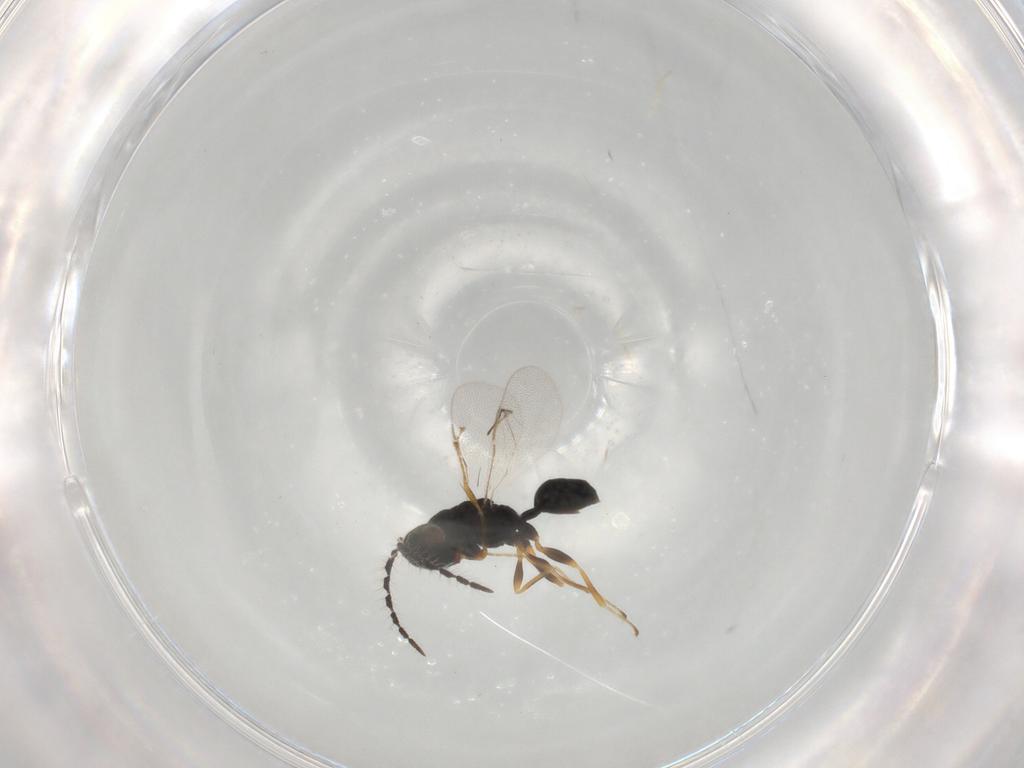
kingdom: Animalia
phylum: Arthropoda
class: Insecta
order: Hymenoptera
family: Eurytomidae
